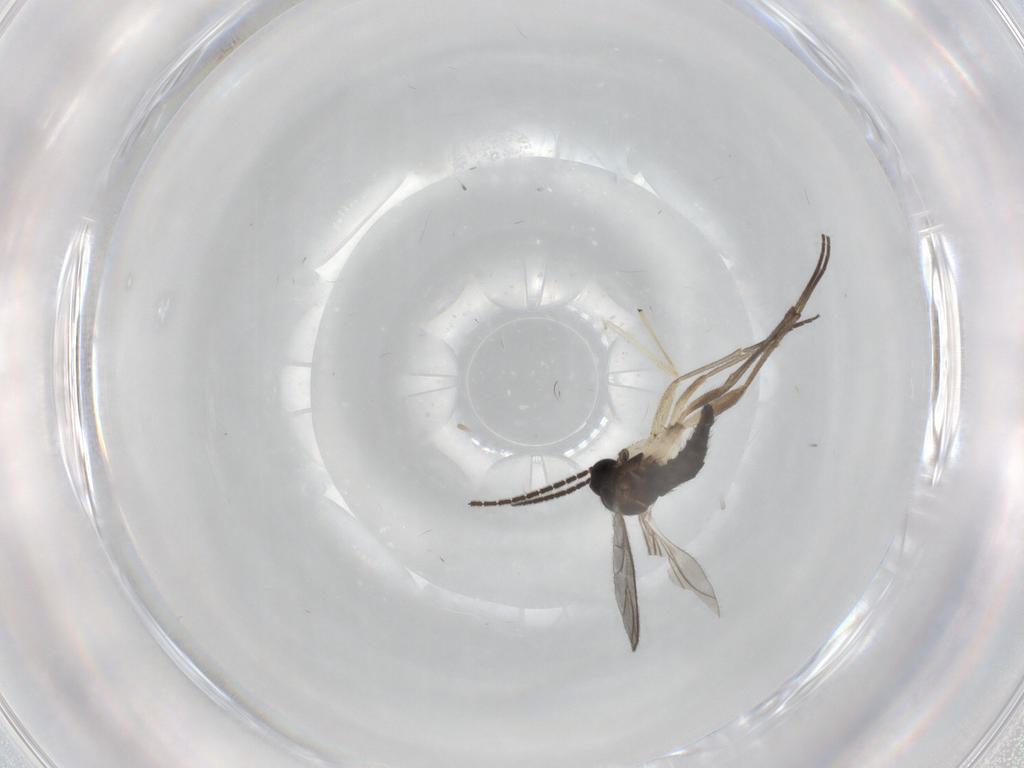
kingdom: Animalia
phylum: Arthropoda
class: Insecta
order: Diptera
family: Sciaridae
